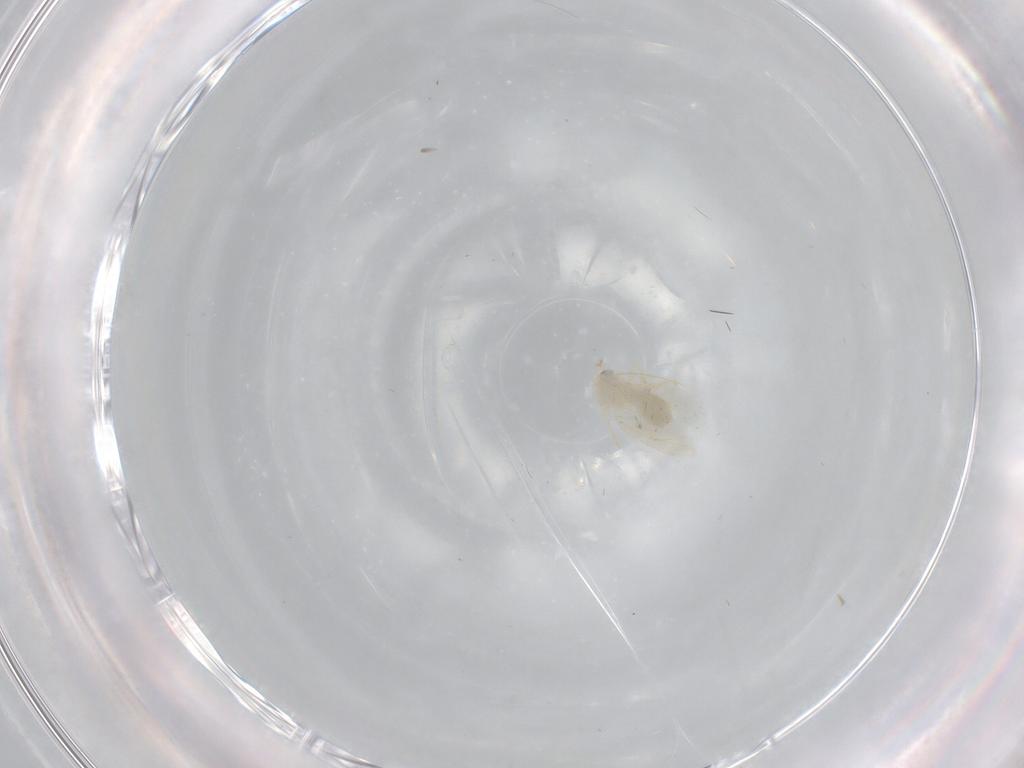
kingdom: Animalia
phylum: Arthropoda
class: Insecta
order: Hemiptera
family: Aleyrodidae
